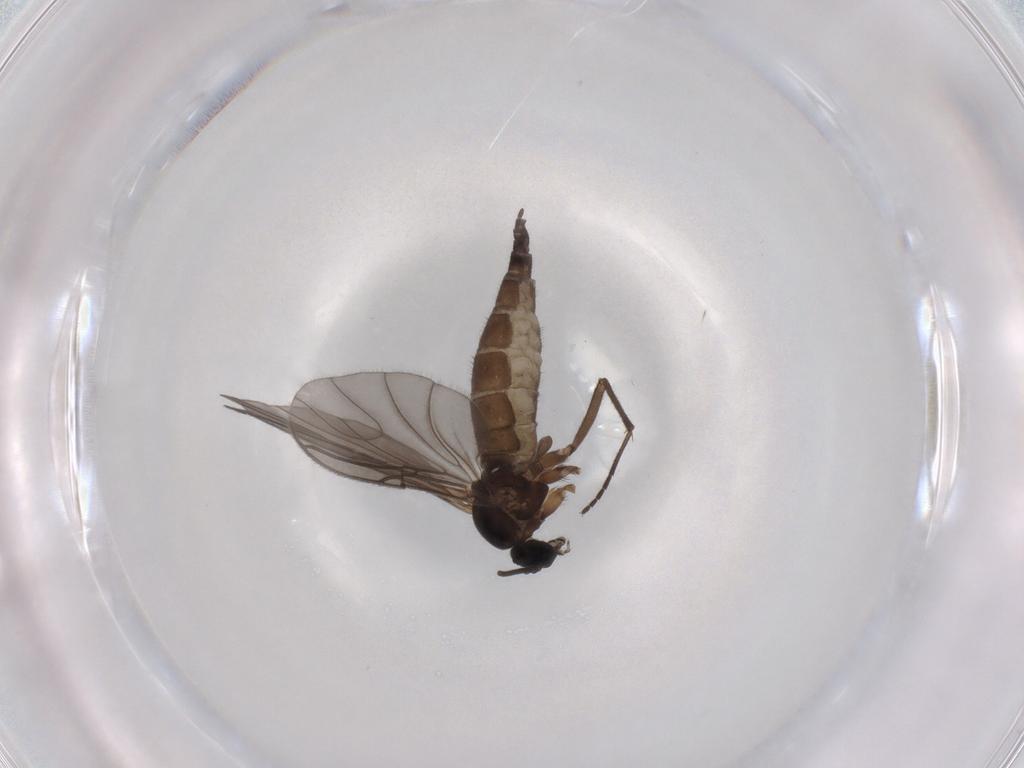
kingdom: Animalia
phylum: Arthropoda
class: Insecta
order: Diptera
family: Sciaridae
